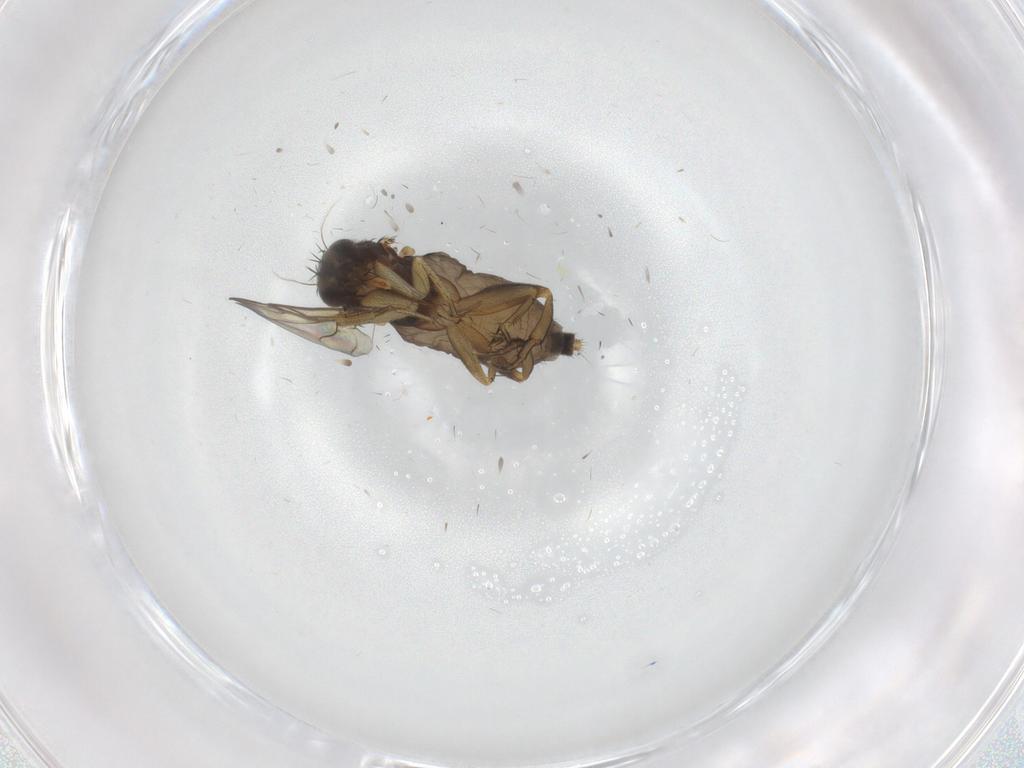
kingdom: Animalia
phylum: Arthropoda
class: Insecta
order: Diptera
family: Phoridae
